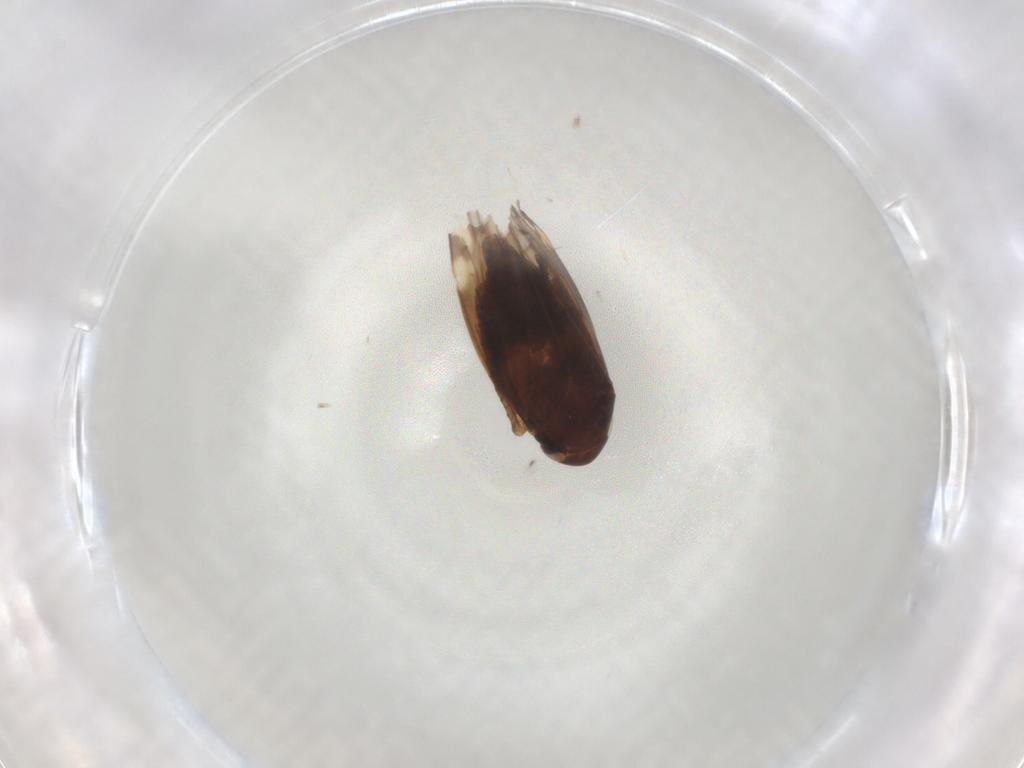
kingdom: Animalia
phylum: Arthropoda
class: Insecta
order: Hemiptera
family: Cicadellidae
